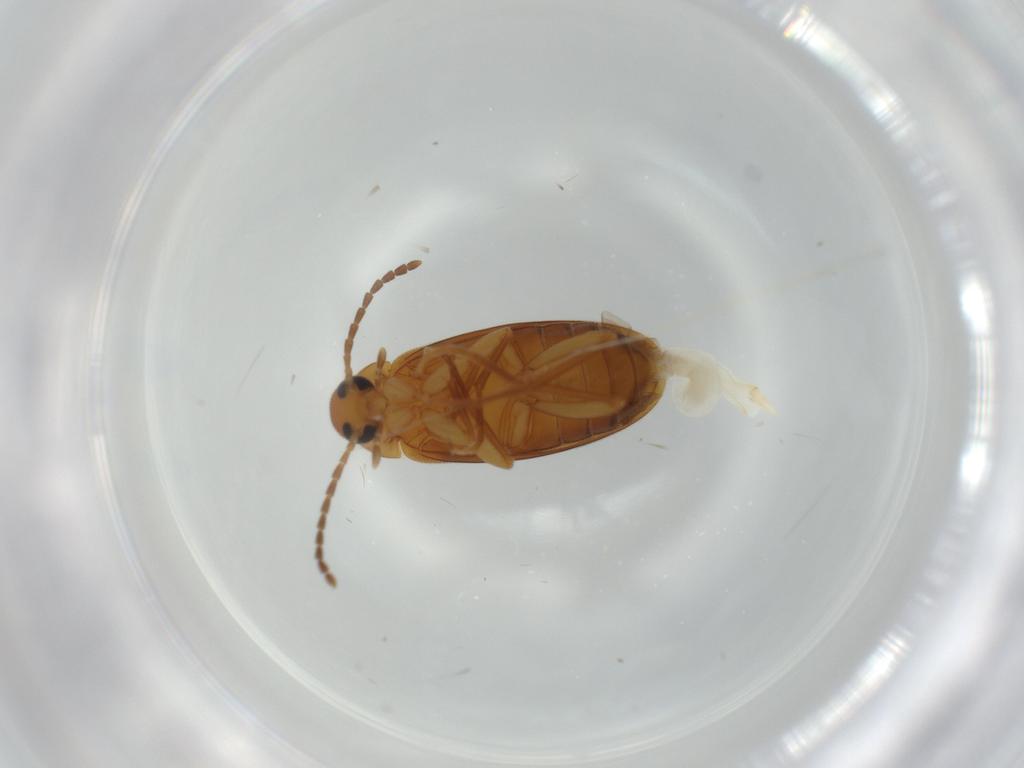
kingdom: Animalia
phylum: Arthropoda
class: Insecta
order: Coleoptera
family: Scraptiidae
